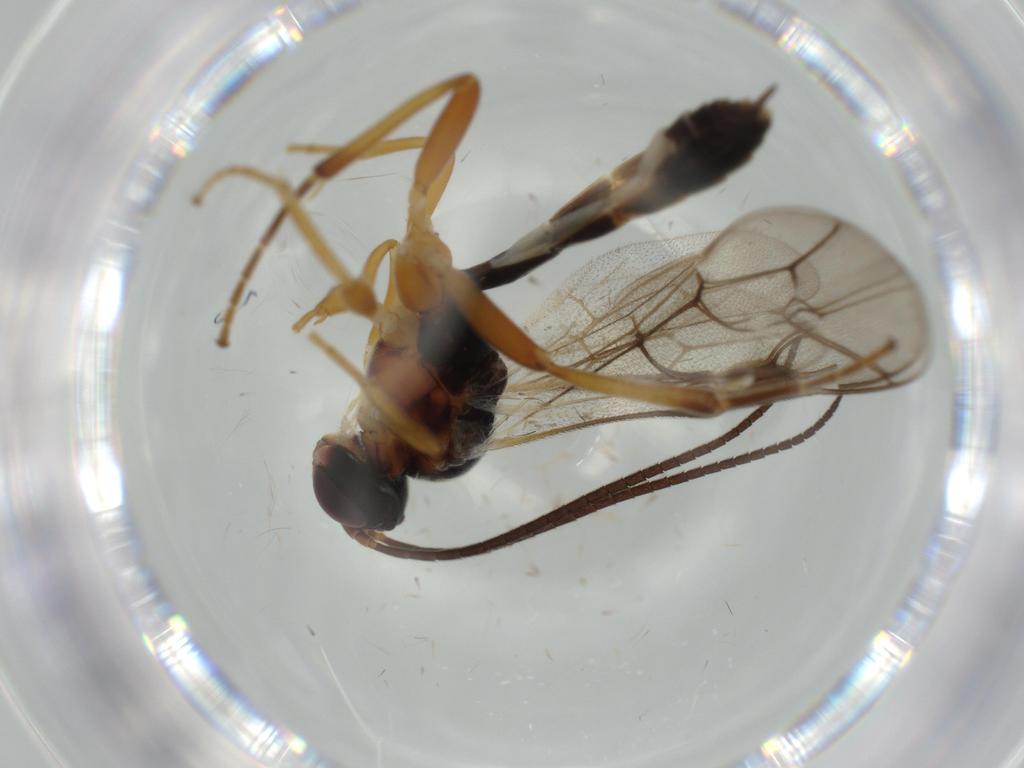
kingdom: Animalia
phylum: Arthropoda
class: Insecta
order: Hymenoptera
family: Ichneumonidae
